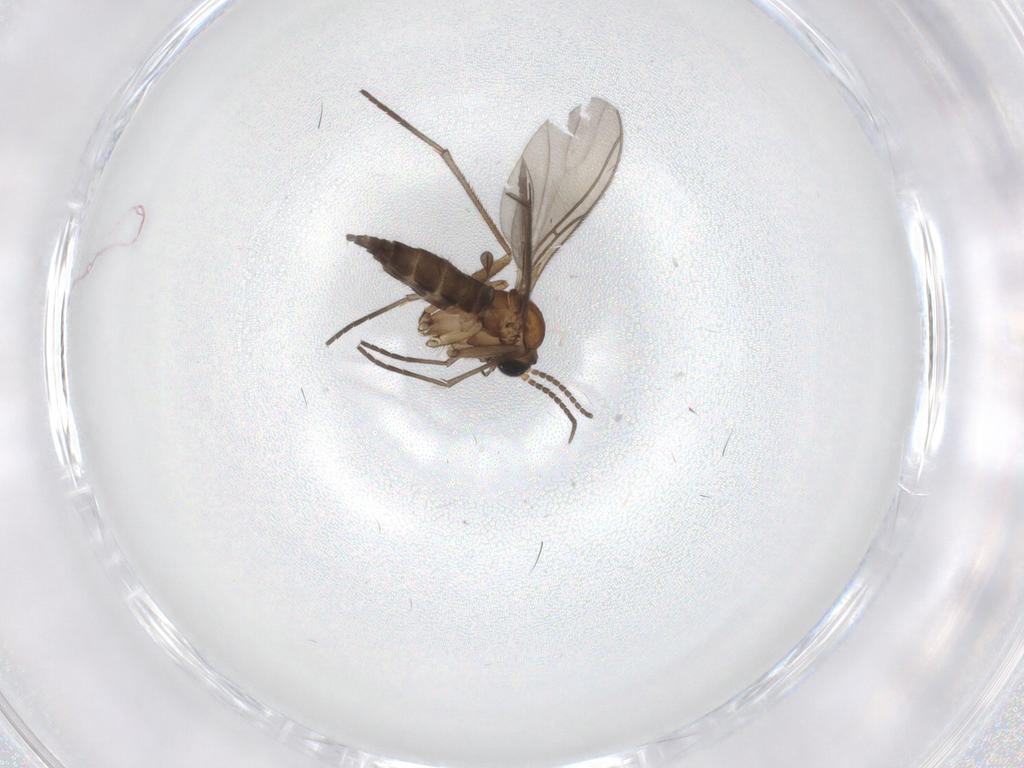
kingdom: Animalia
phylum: Arthropoda
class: Insecta
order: Diptera
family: Sciaridae
